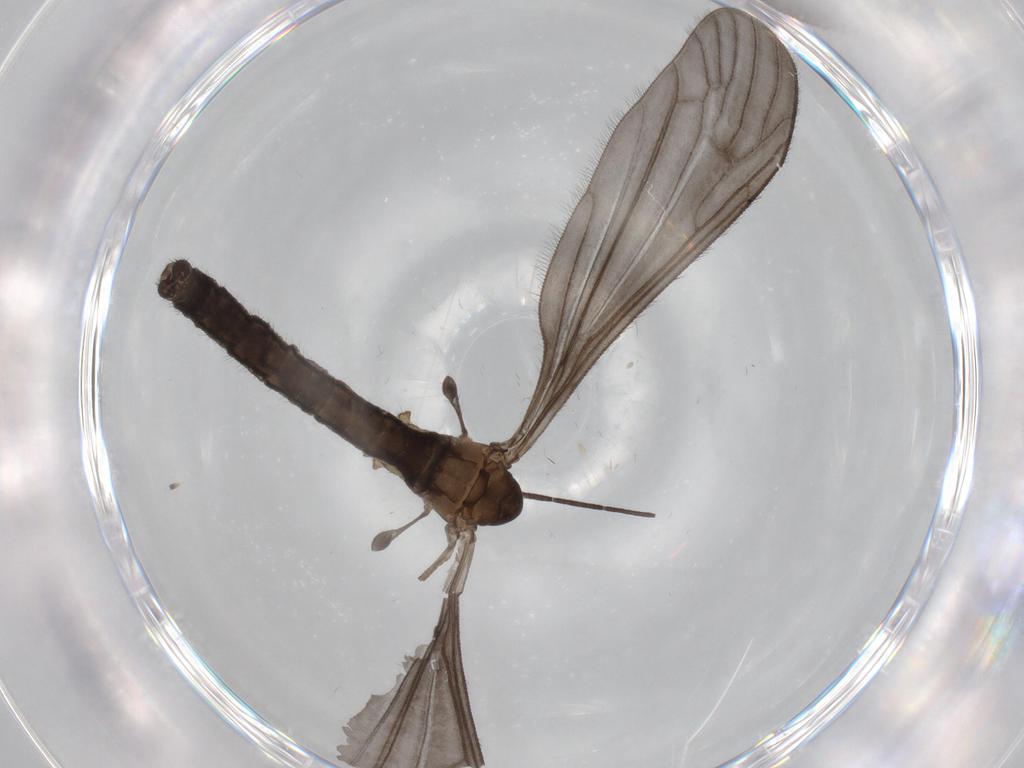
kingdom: Animalia
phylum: Arthropoda
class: Insecta
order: Diptera
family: Limoniidae
